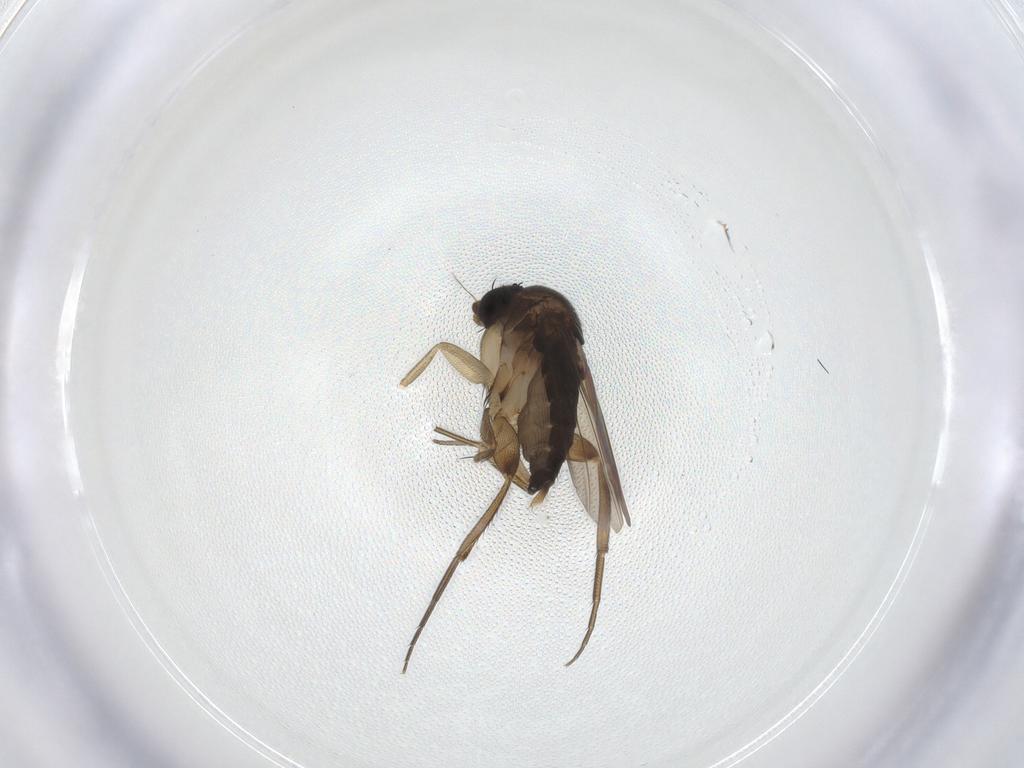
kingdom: Animalia
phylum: Arthropoda
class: Insecta
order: Diptera
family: Phoridae
